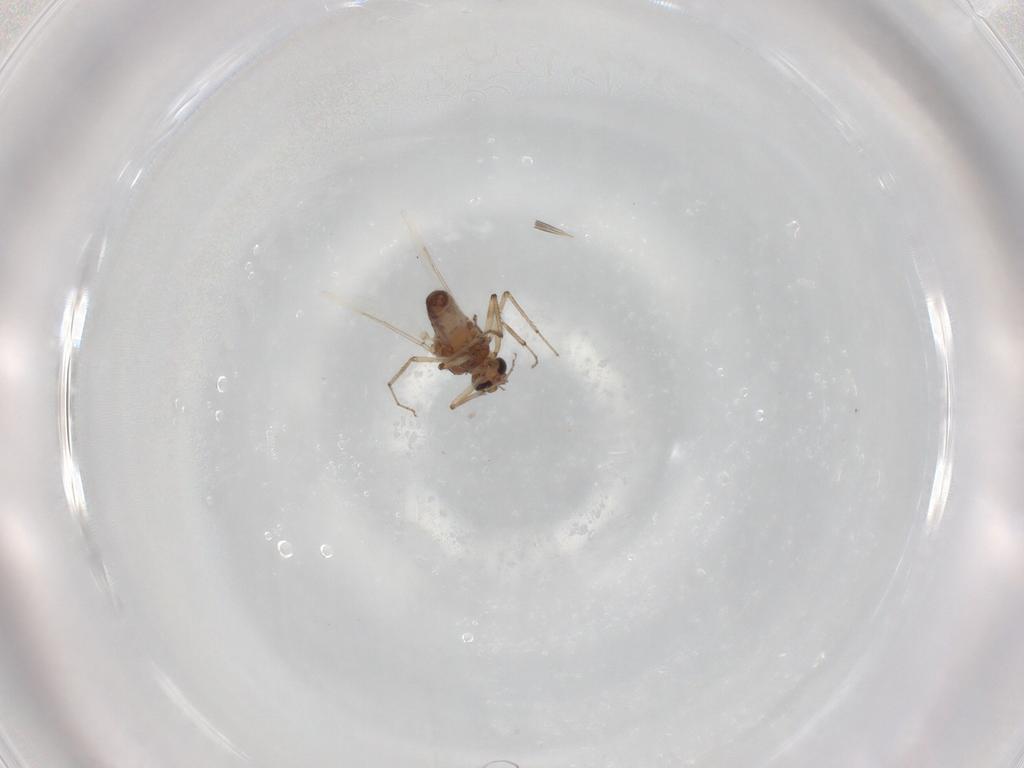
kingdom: Animalia
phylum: Arthropoda
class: Insecta
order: Diptera
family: Ceratopogonidae
